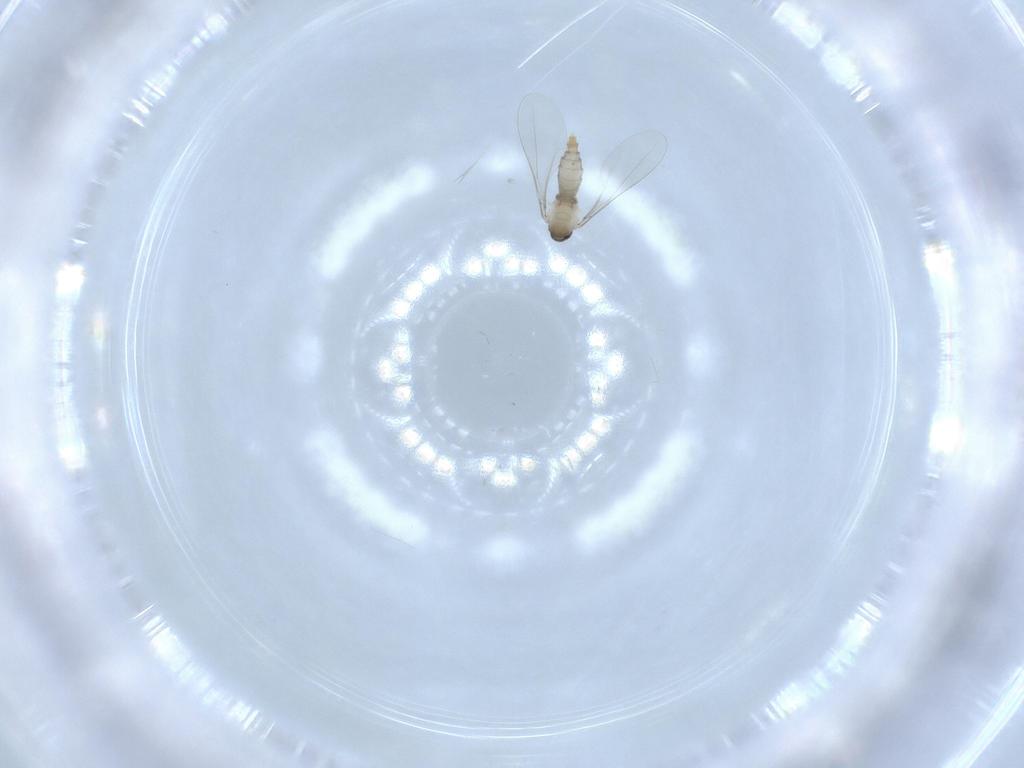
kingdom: Animalia
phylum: Arthropoda
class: Insecta
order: Diptera
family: Cecidomyiidae
